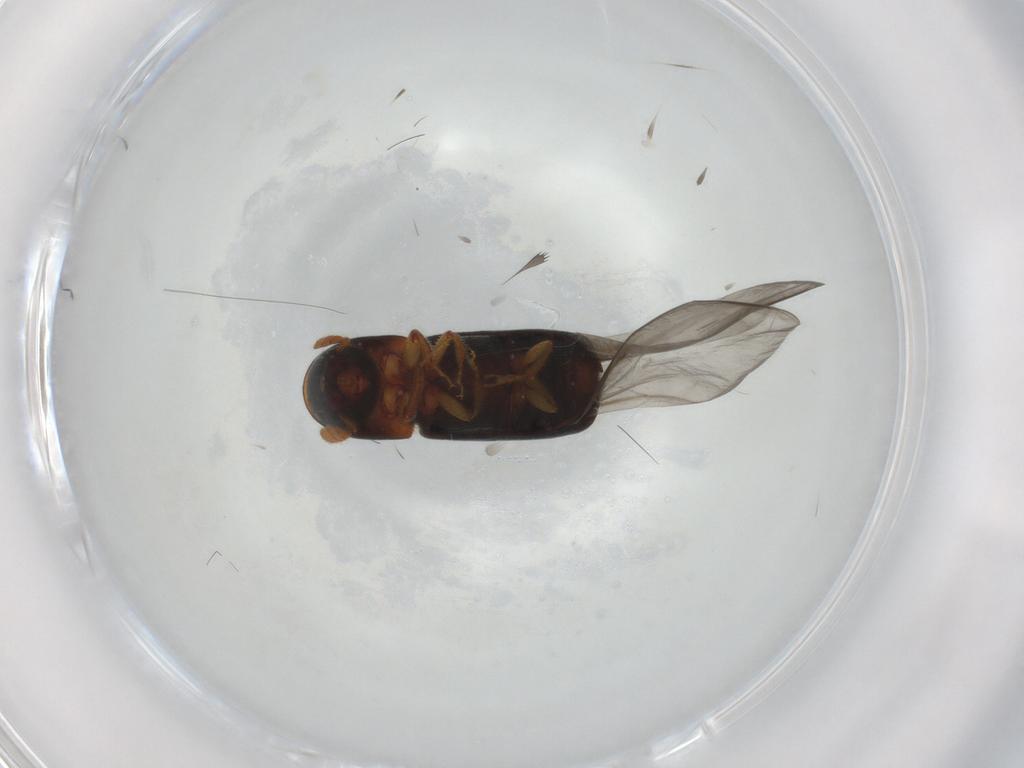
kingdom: Animalia
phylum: Arthropoda
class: Insecta
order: Coleoptera
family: Curculionidae
